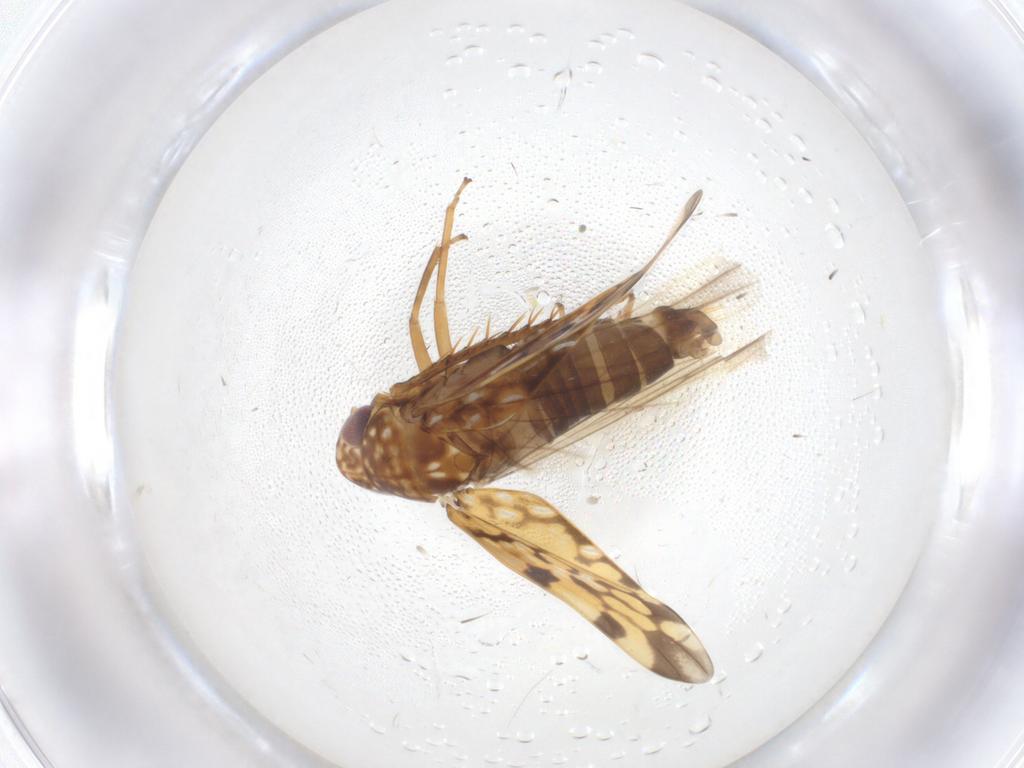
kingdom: Animalia
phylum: Arthropoda
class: Insecta
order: Hemiptera
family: Cicadellidae
